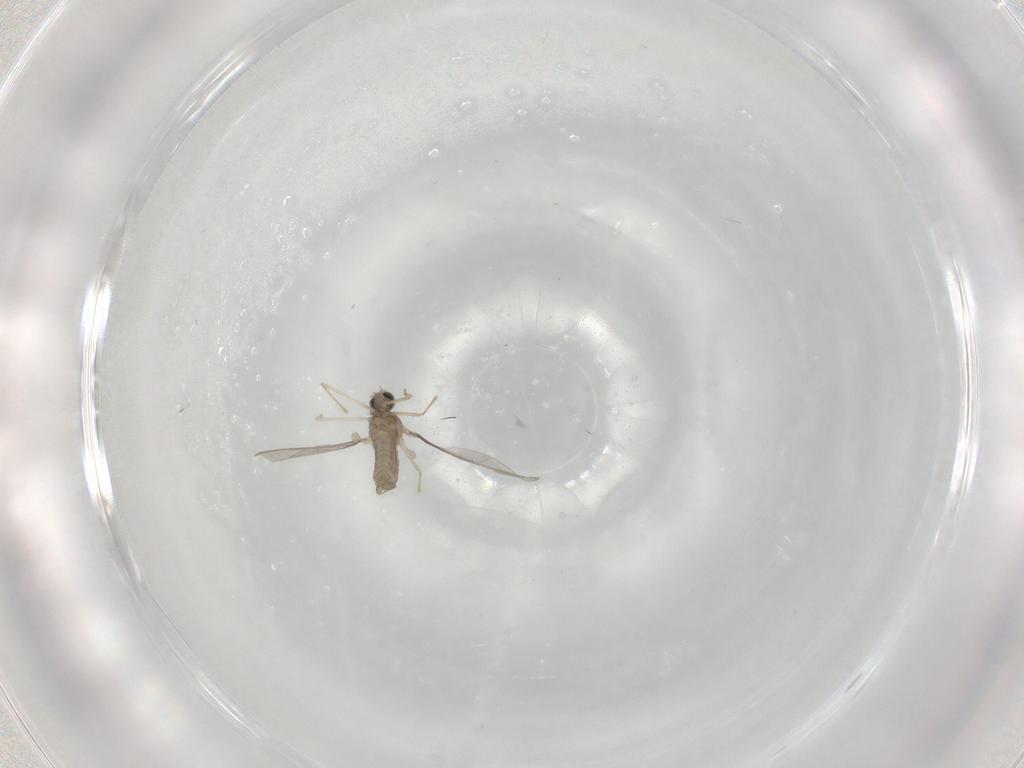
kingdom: Animalia
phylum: Arthropoda
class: Insecta
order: Diptera
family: Cecidomyiidae
